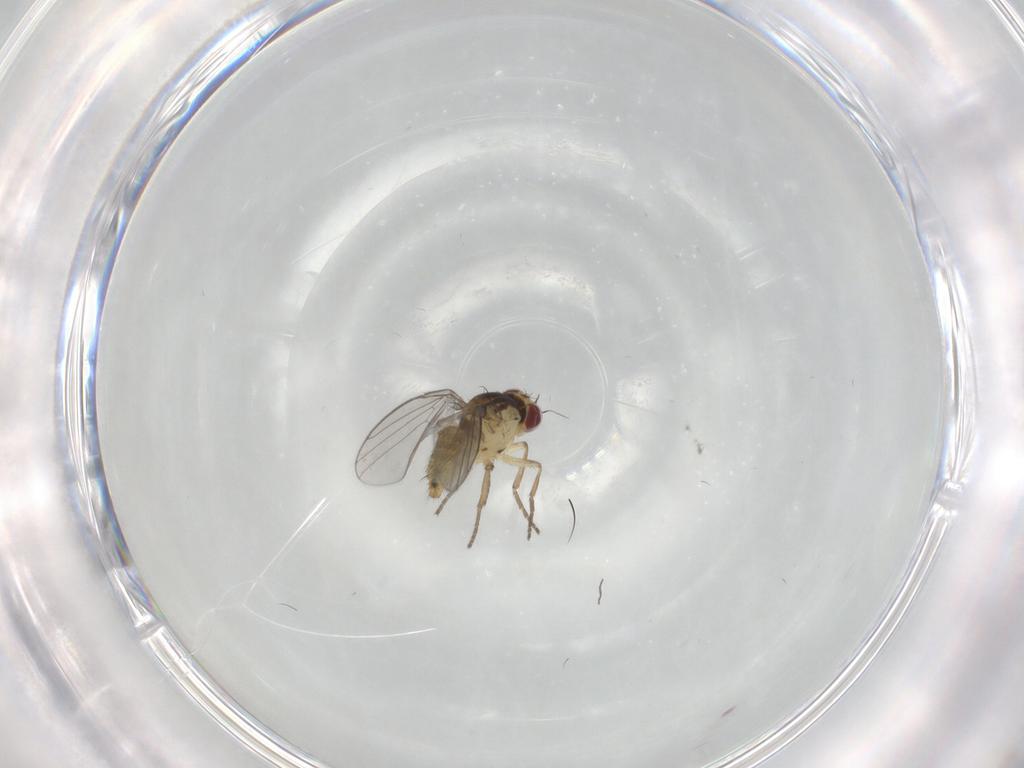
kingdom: Animalia
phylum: Arthropoda
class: Insecta
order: Diptera
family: Agromyzidae
